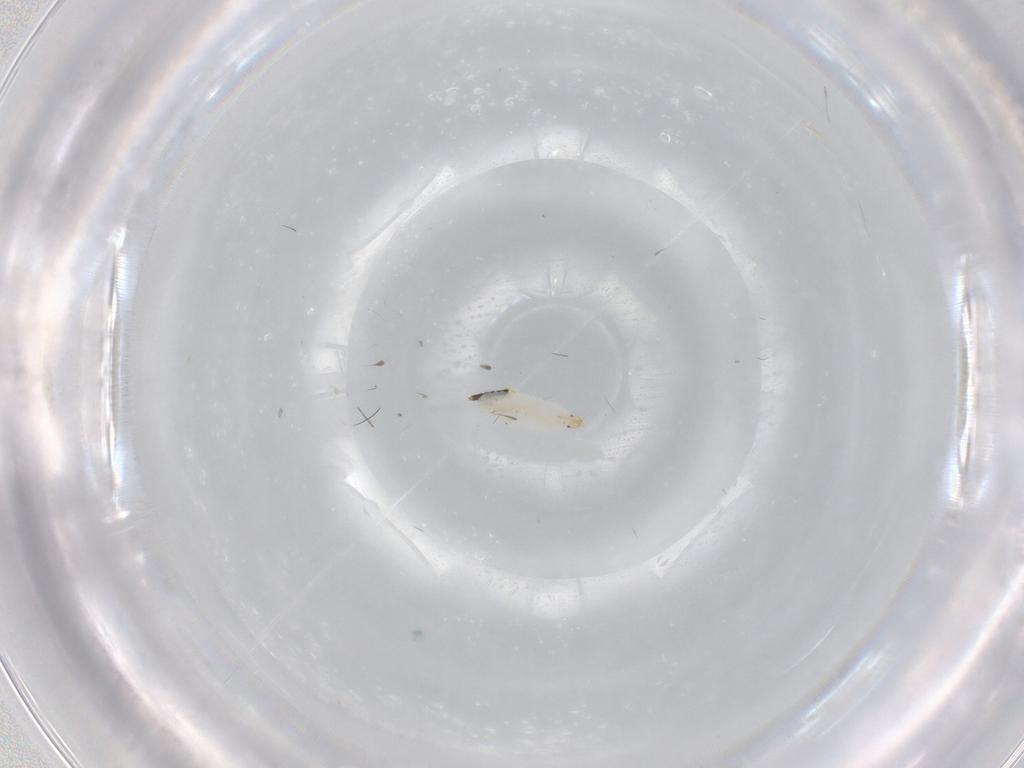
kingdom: Animalia
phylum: Arthropoda
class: Insecta
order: Diptera
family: Sciaridae
